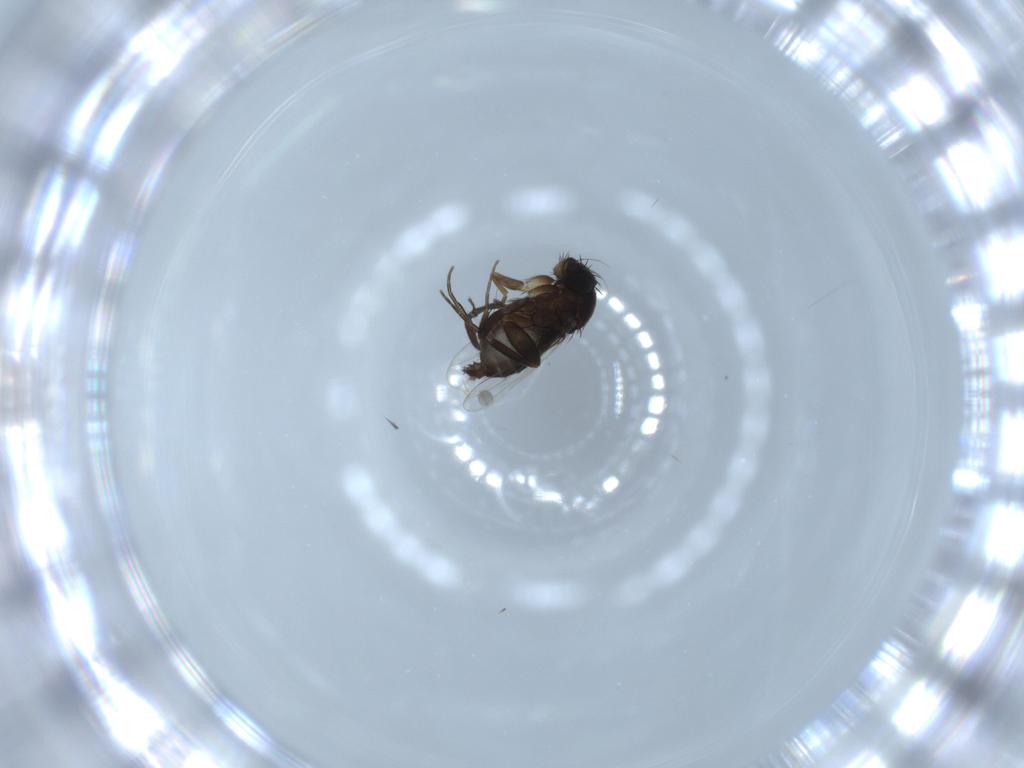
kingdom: Animalia
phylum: Arthropoda
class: Insecta
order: Diptera
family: Phoridae
